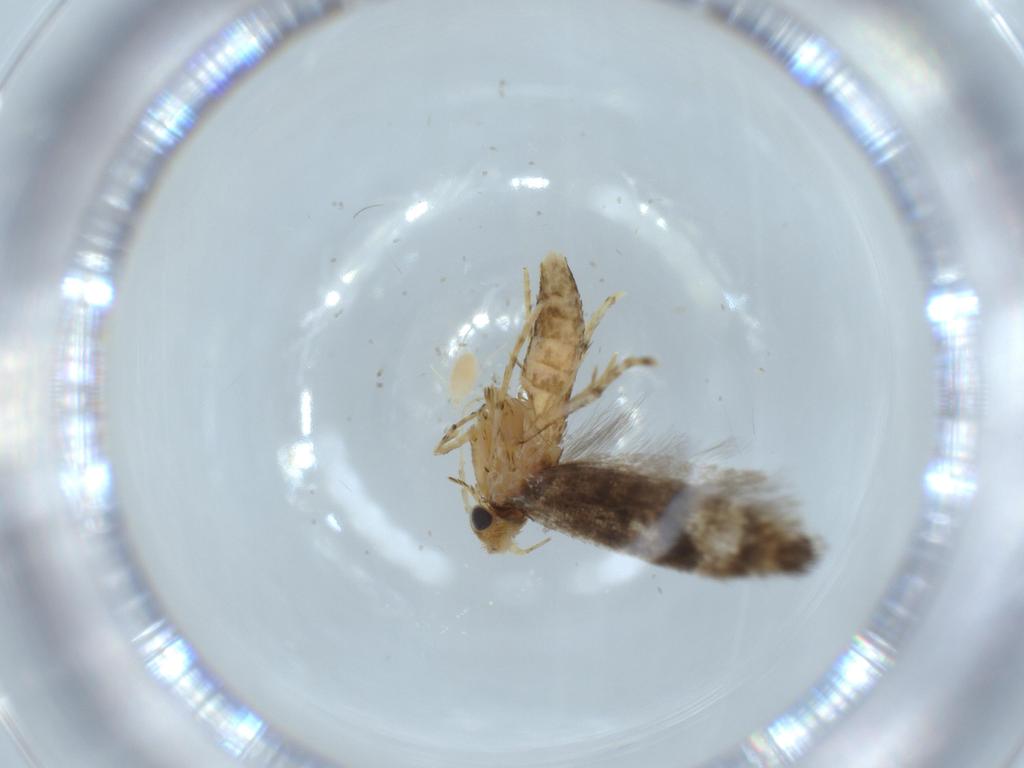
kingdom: Animalia
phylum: Arthropoda
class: Insecta
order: Lepidoptera
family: Argyresthiidae
